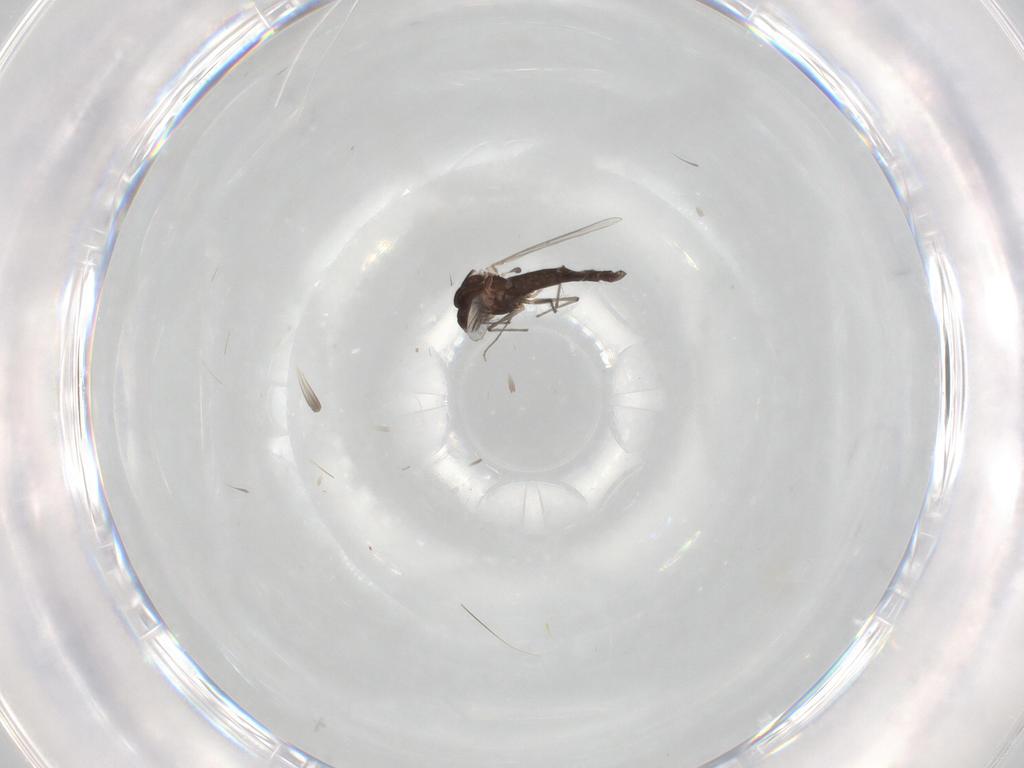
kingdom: Animalia
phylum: Arthropoda
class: Insecta
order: Diptera
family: Chironomidae
